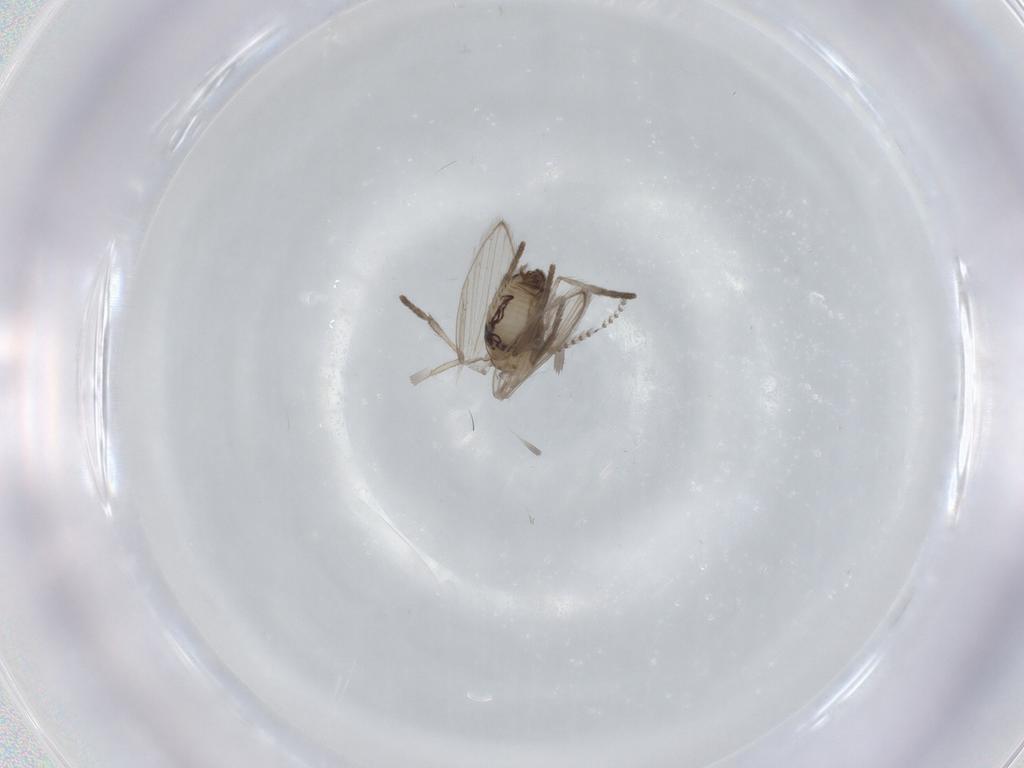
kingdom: Animalia
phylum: Arthropoda
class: Insecta
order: Diptera
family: Psychodidae
